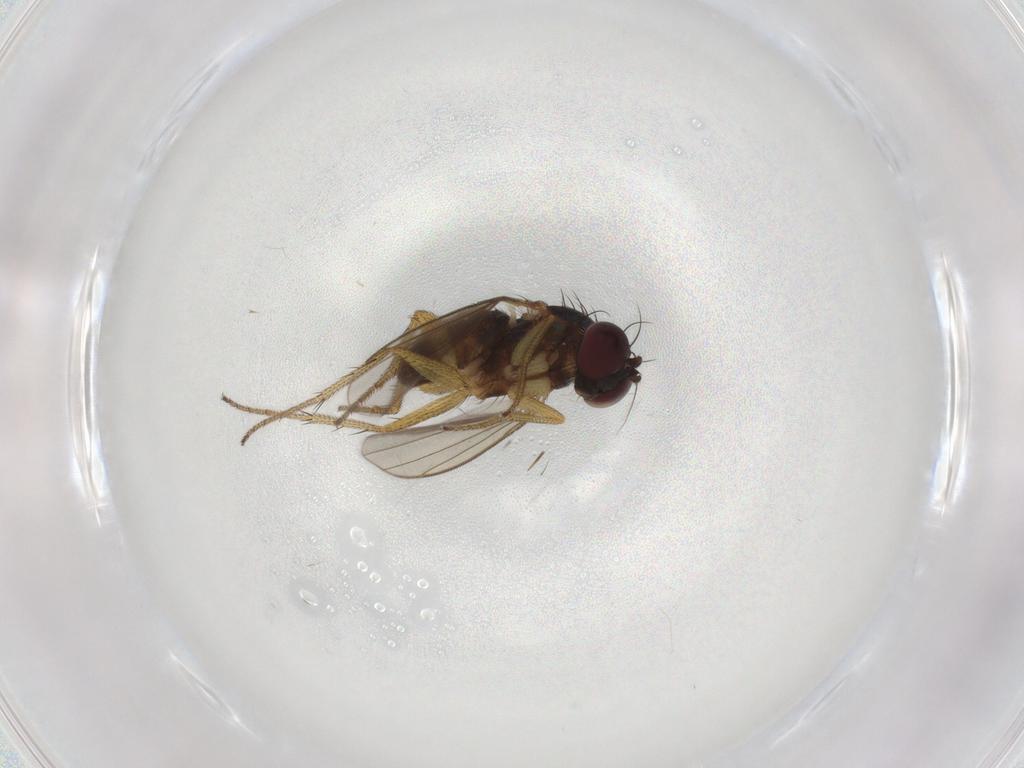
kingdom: Animalia
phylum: Arthropoda
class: Insecta
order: Diptera
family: Dolichopodidae
